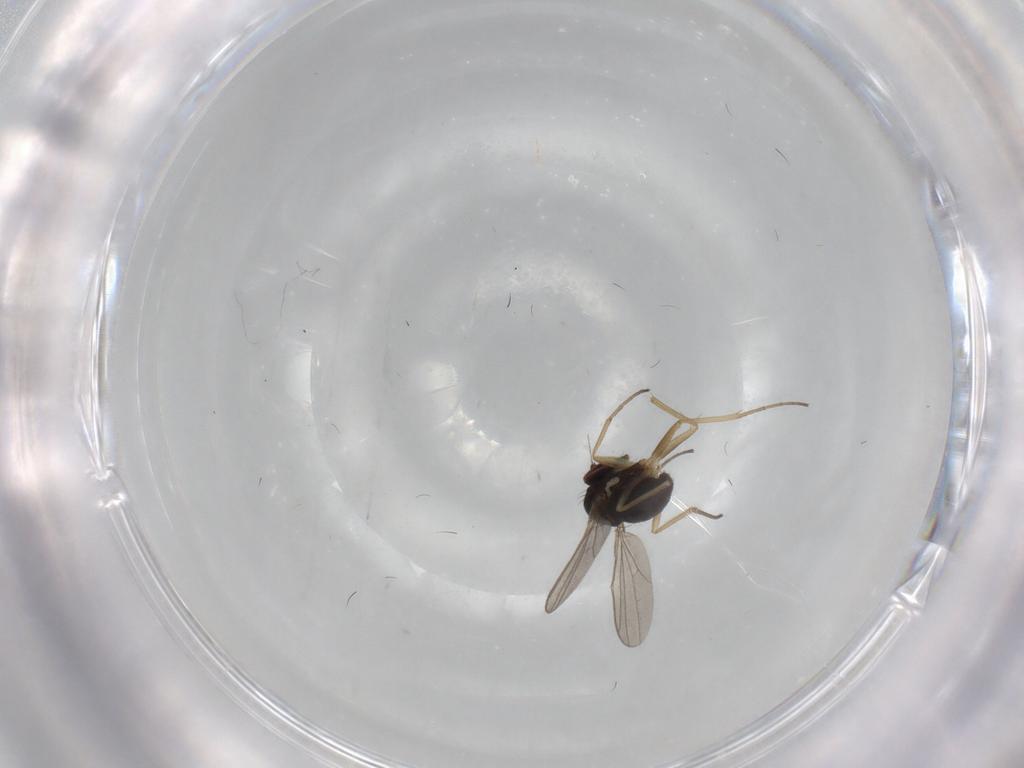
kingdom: Animalia
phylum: Arthropoda
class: Insecta
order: Diptera
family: Dolichopodidae
